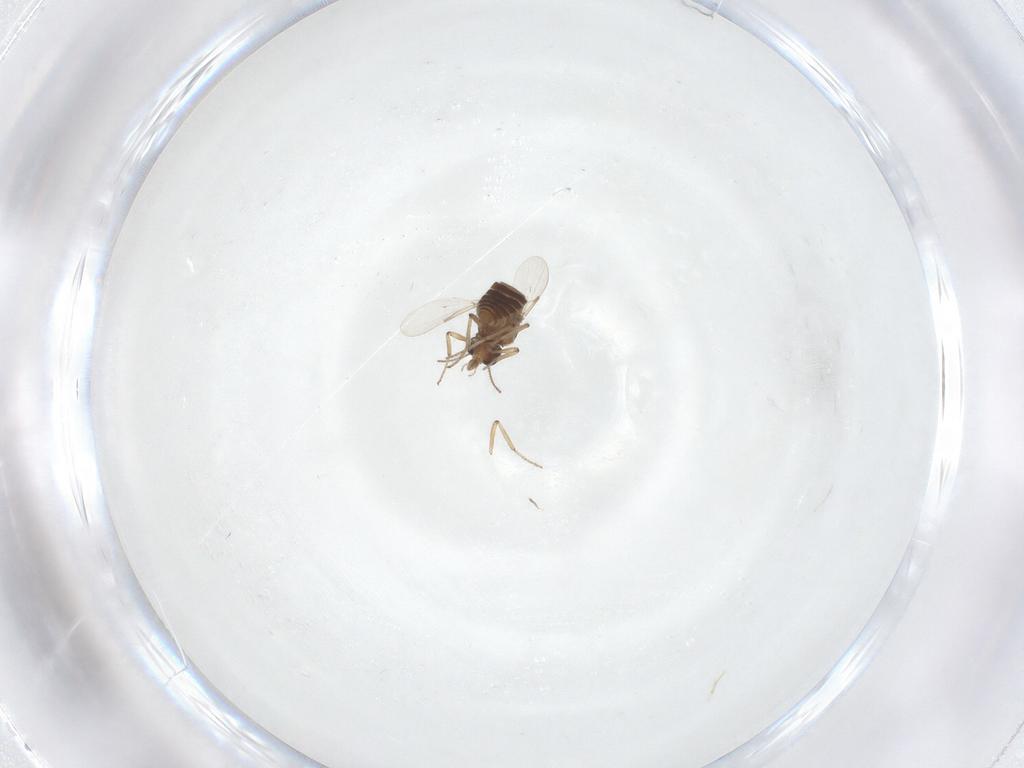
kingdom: Animalia
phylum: Arthropoda
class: Insecta
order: Diptera
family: Ceratopogonidae
